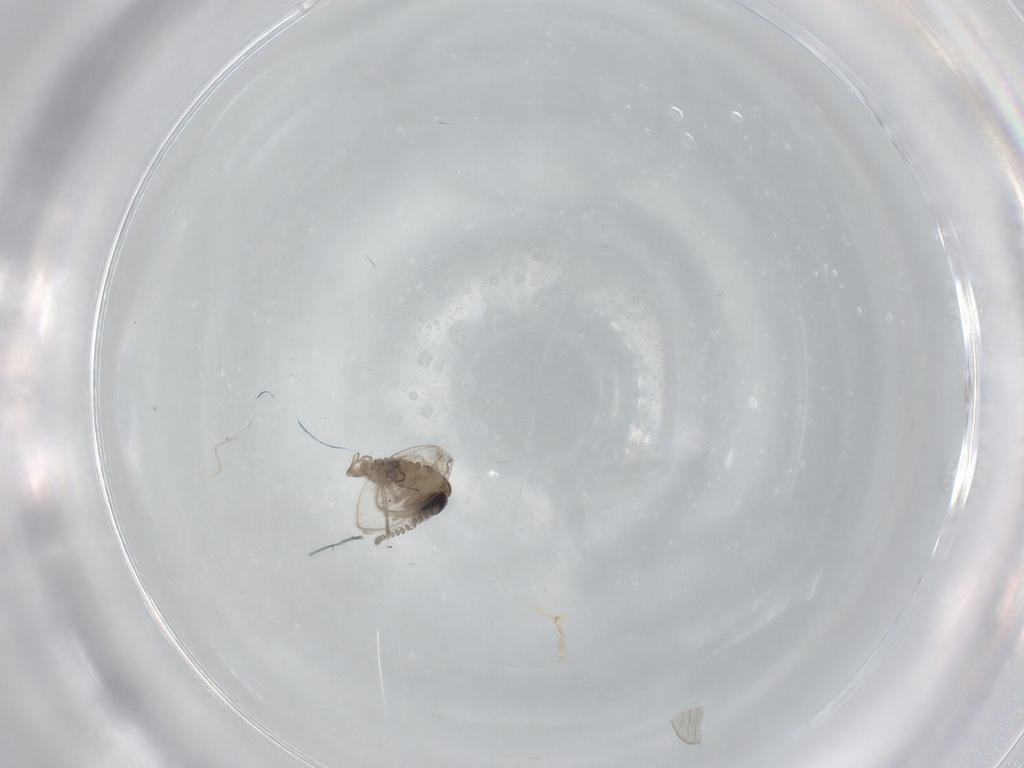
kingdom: Animalia
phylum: Arthropoda
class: Insecta
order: Diptera
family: Psychodidae
